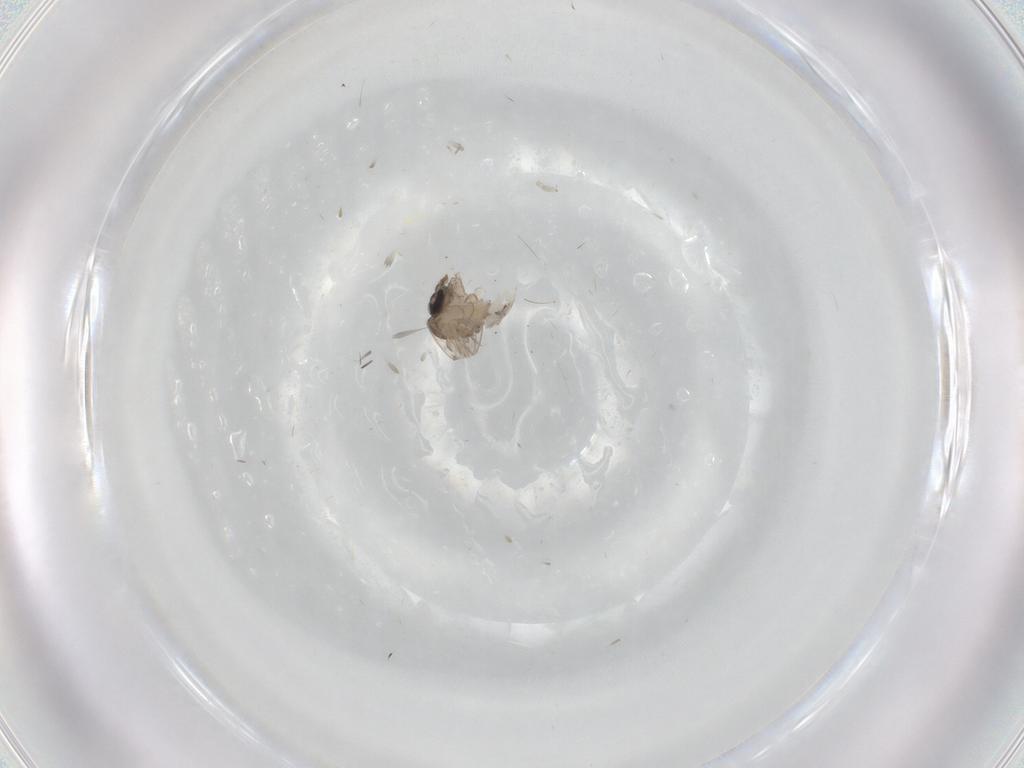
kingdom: Animalia
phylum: Arthropoda
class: Insecta
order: Diptera
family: Psychodidae
